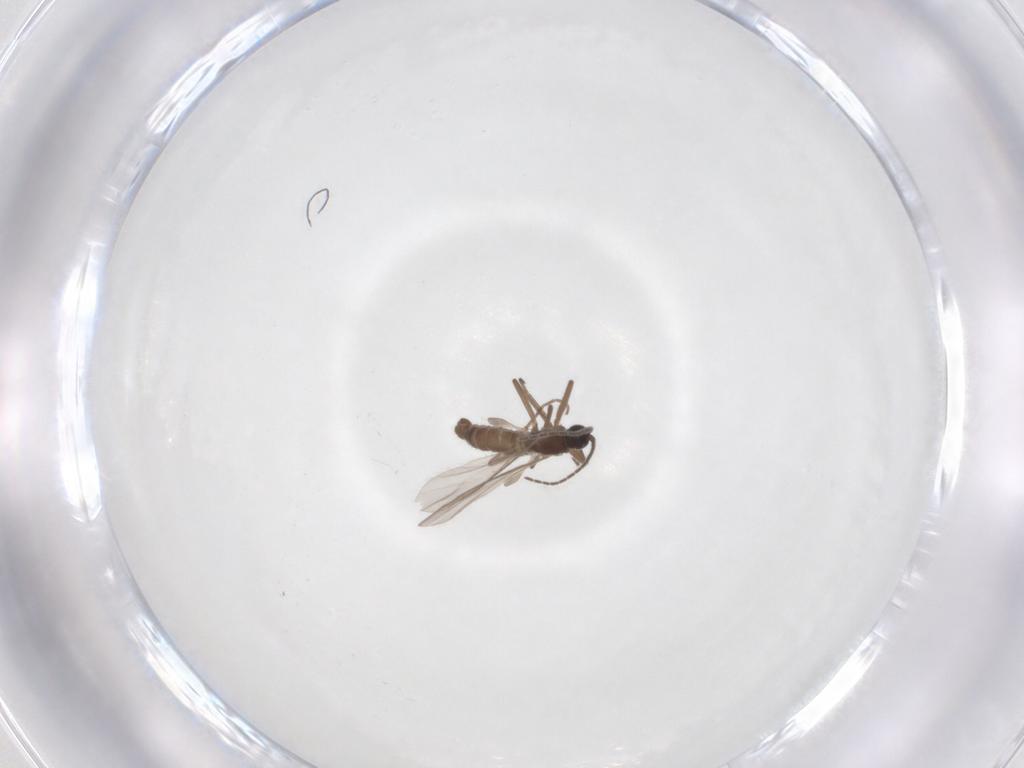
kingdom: Animalia
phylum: Arthropoda
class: Insecta
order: Diptera
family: Sciaridae
